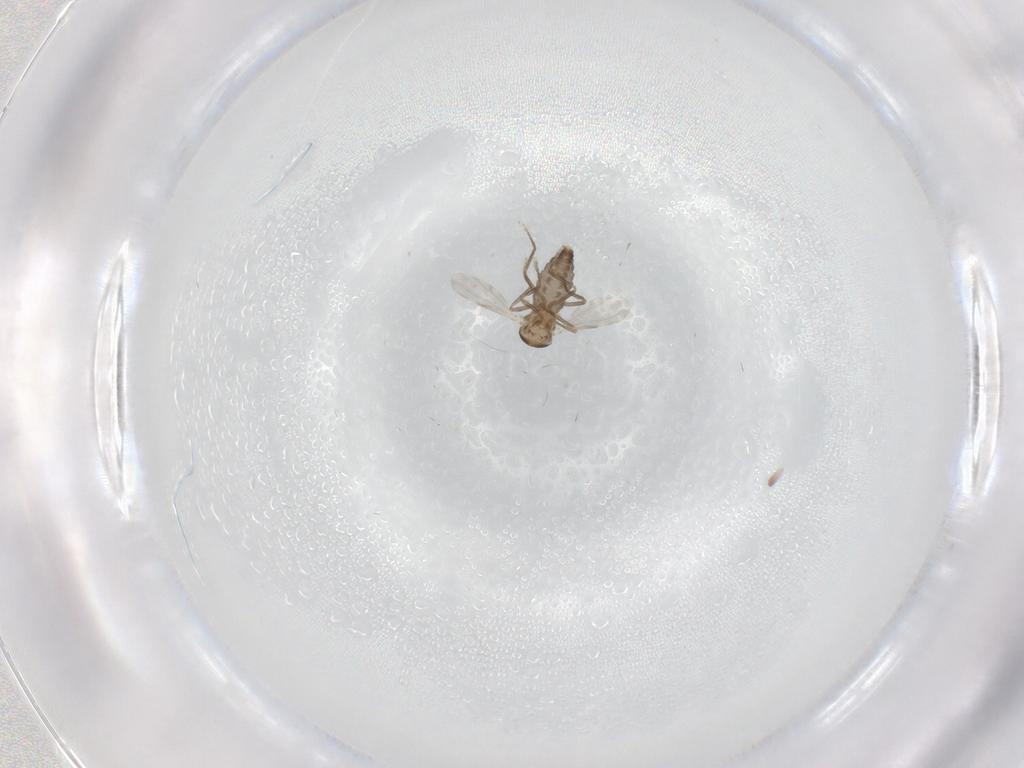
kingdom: Animalia
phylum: Arthropoda
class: Insecta
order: Diptera
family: Ceratopogonidae
